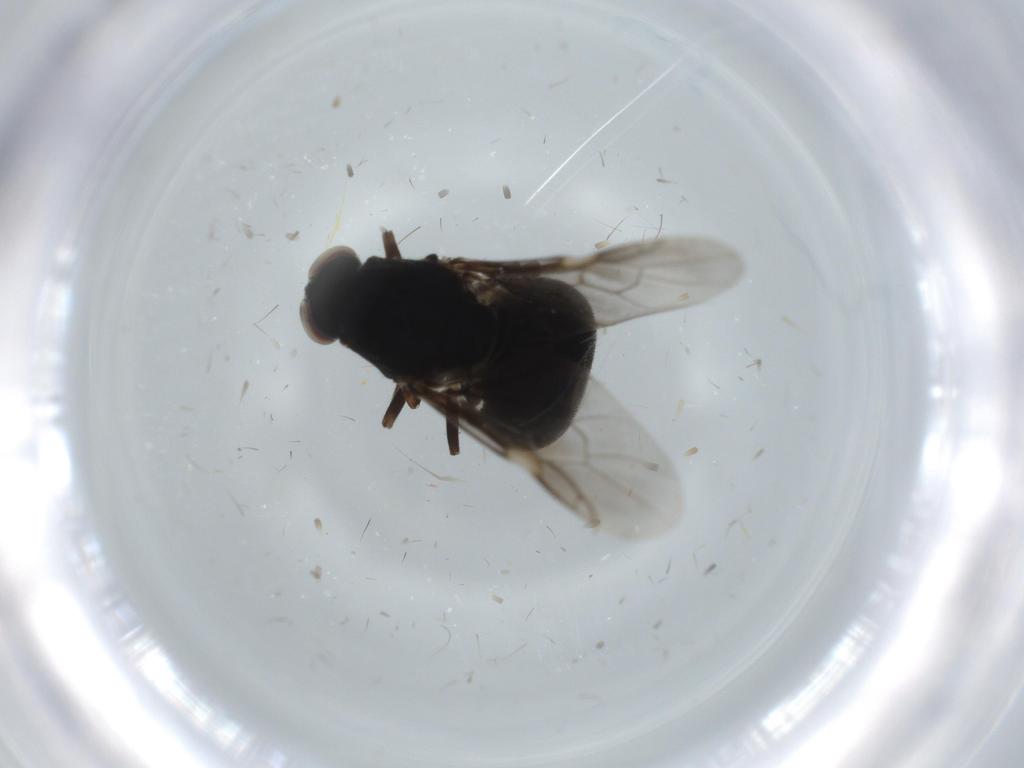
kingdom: Animalia
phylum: Arthropoda
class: Insecta
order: Diptera
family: Stratiomyidae
